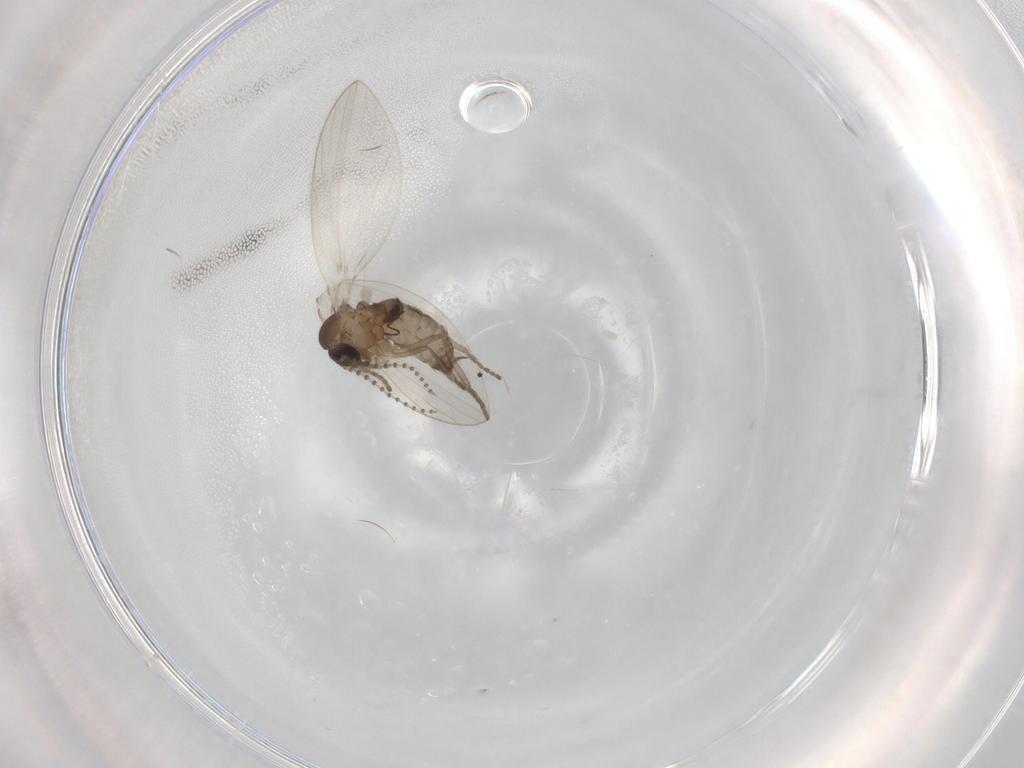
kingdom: Animalia
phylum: Arthropoda
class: Insecta
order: Diptera
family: Psychodidae
